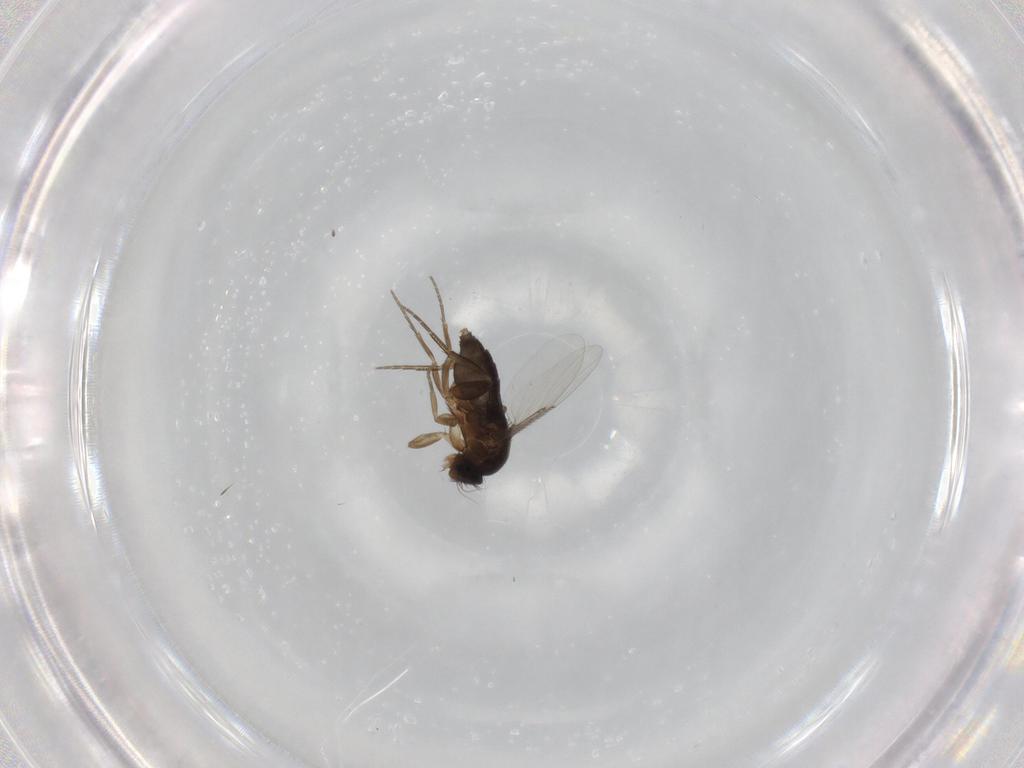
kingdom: Animalia
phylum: Arthropoda
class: Insecta
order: Diptera
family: Phoridae
